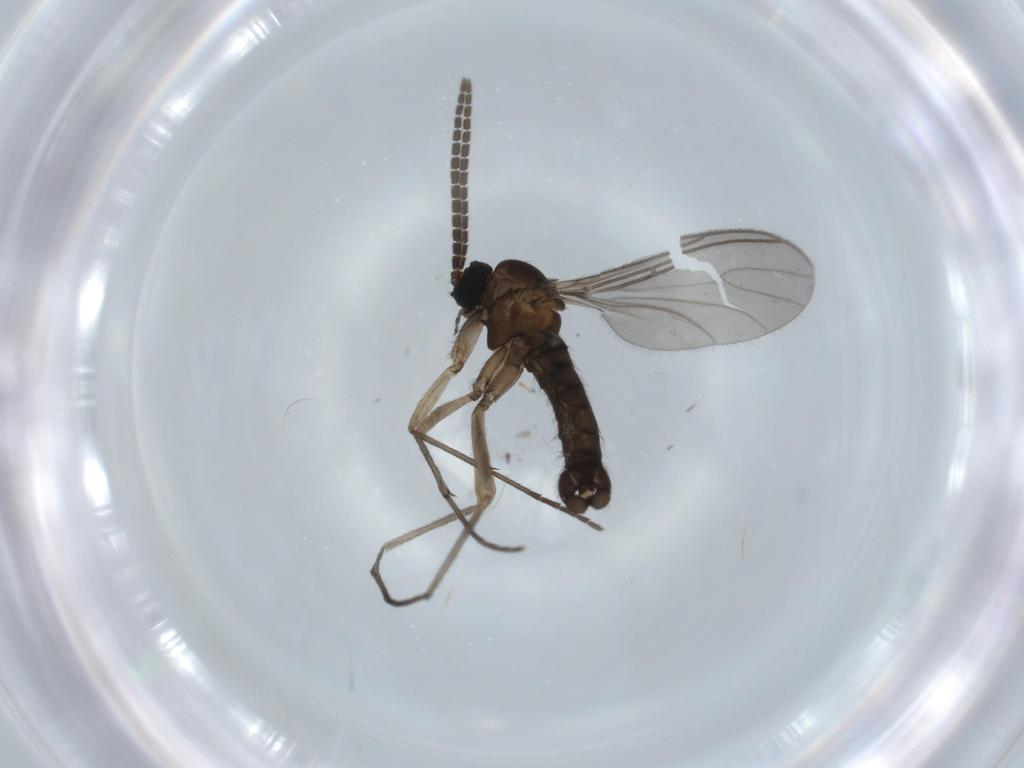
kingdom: Animalia
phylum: Arthropoda
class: Insecta
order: Diptera
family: Sciaridae
